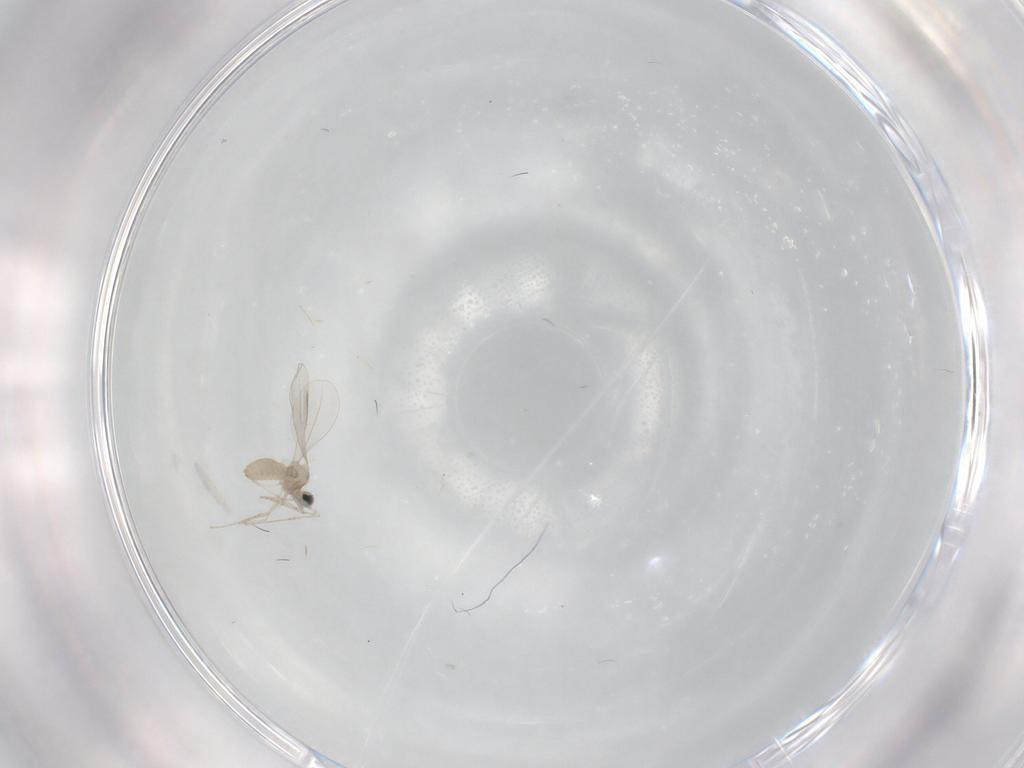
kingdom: Animalia
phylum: Arthropoda
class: Insecta
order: Diptera
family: Cecidomyiidae
